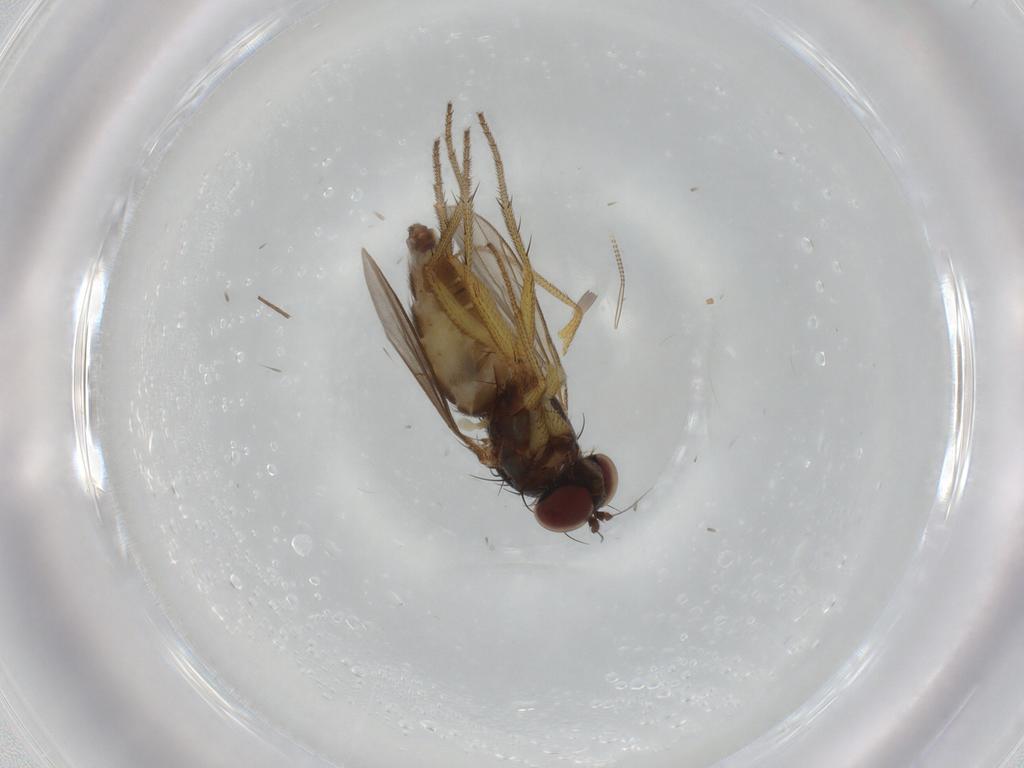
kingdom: Animalia
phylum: Arthropoda
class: Insecta
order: Diptera
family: Dolichopodidae
